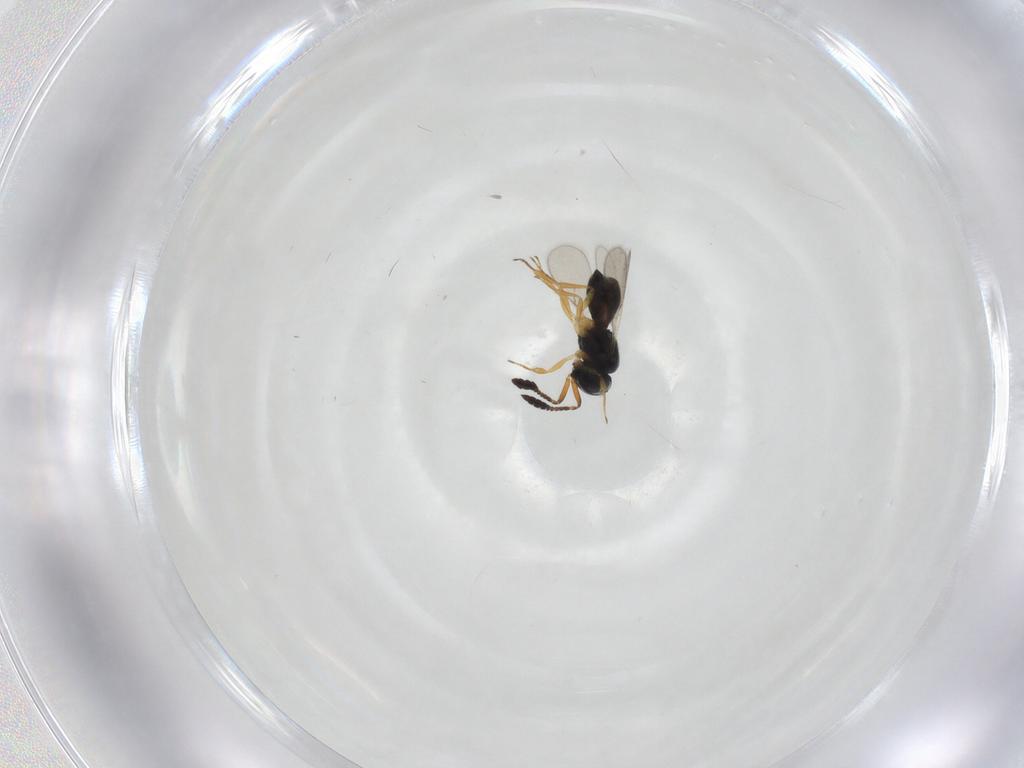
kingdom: Animalia
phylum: Arthropoda
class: Insecta
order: Hymenoptera
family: Scelionidae
